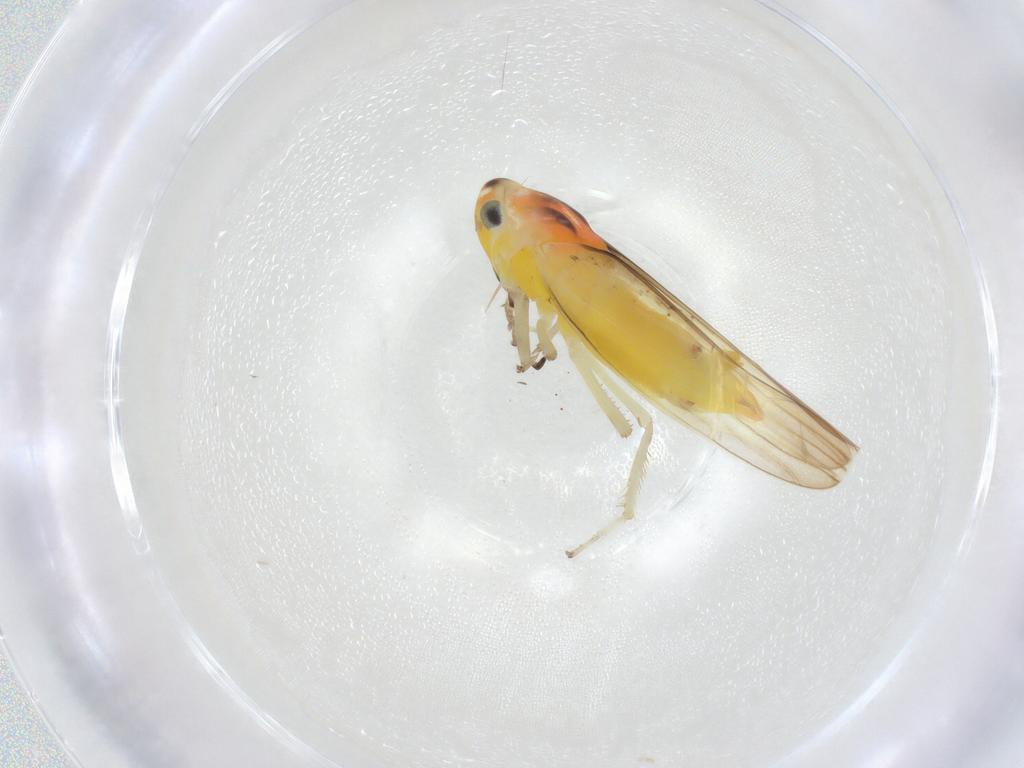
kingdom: Animalia
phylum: Arthropoda
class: Insecta
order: Hemiptera
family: Cicadellidae
